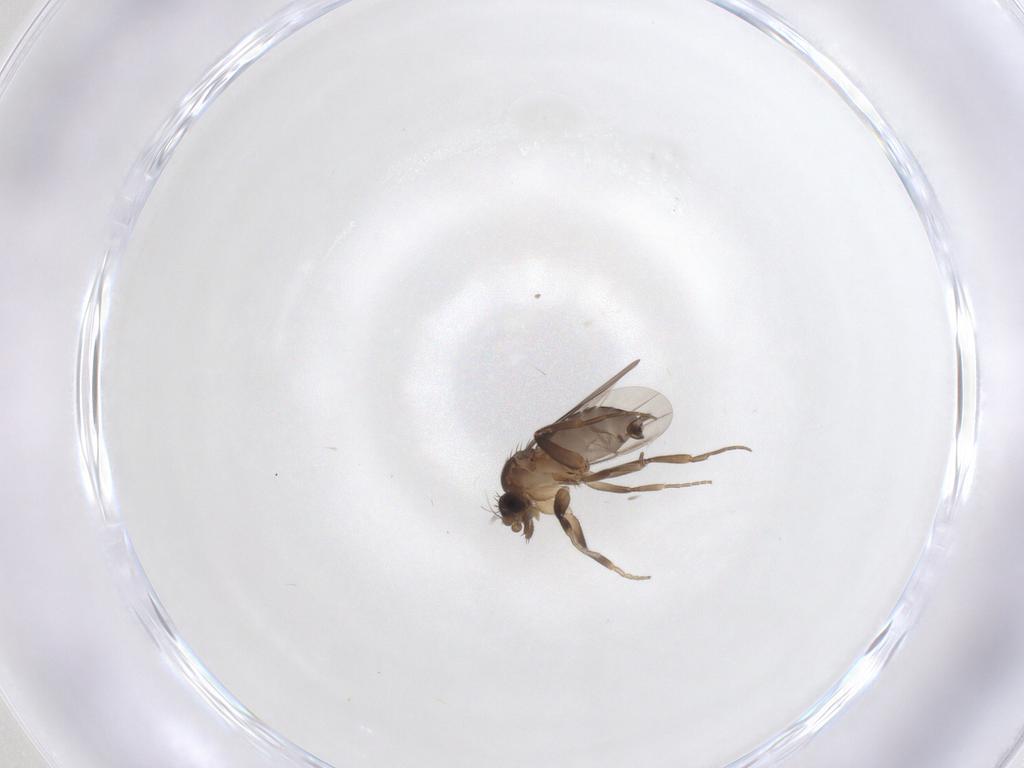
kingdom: Animalia
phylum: Arthropoda
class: Insecta
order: Diptera
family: Phoridae
